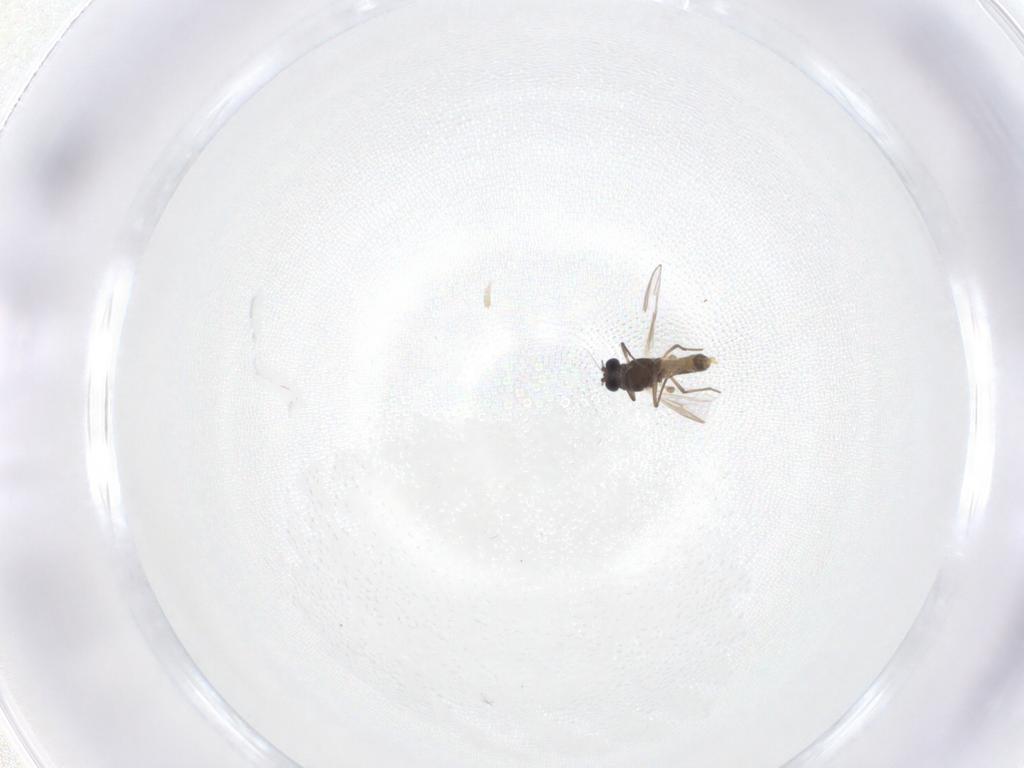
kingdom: Animalia
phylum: Arthropoda
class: Insecta
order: Diptera
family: Chironomidae
